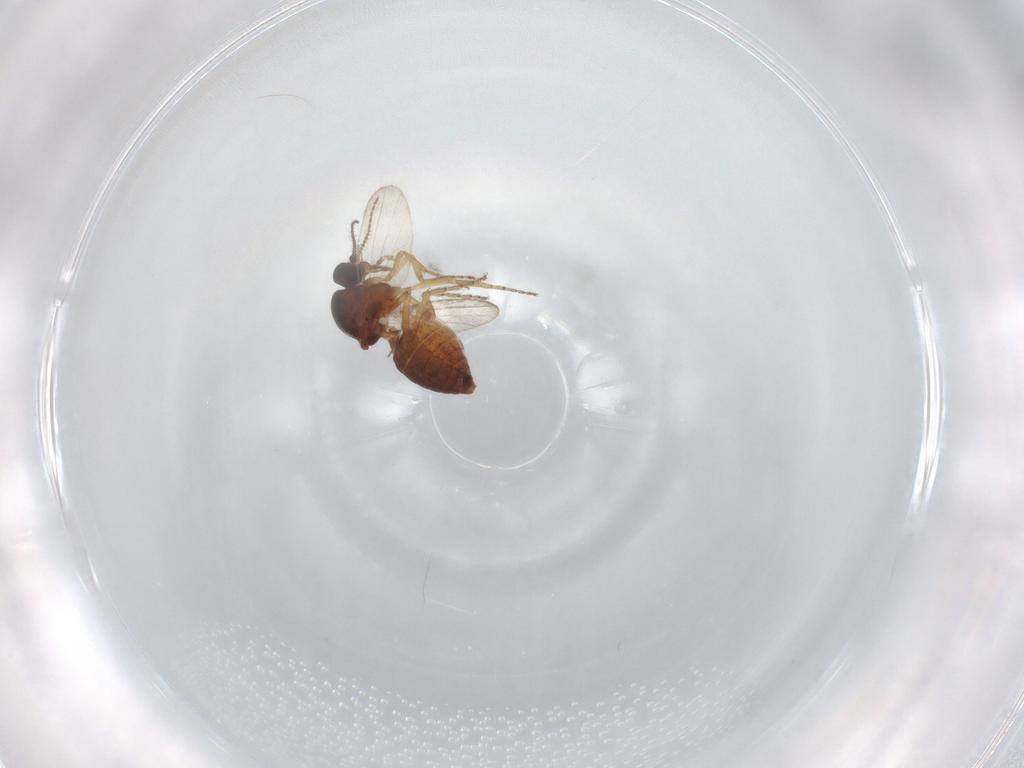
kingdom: Animalia
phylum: Arthropoda
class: Insecta
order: Diptera
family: Ceratopogonidae
